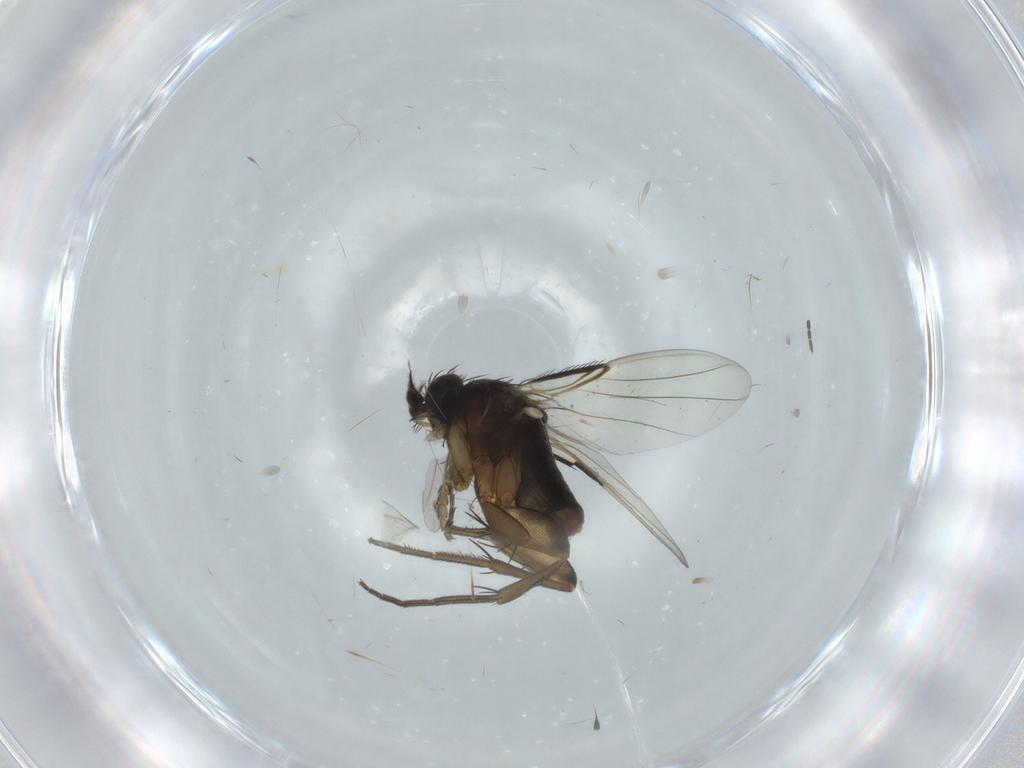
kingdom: Animalia
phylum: Arthropoda
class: Insecta
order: Diptera
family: Phoridae
